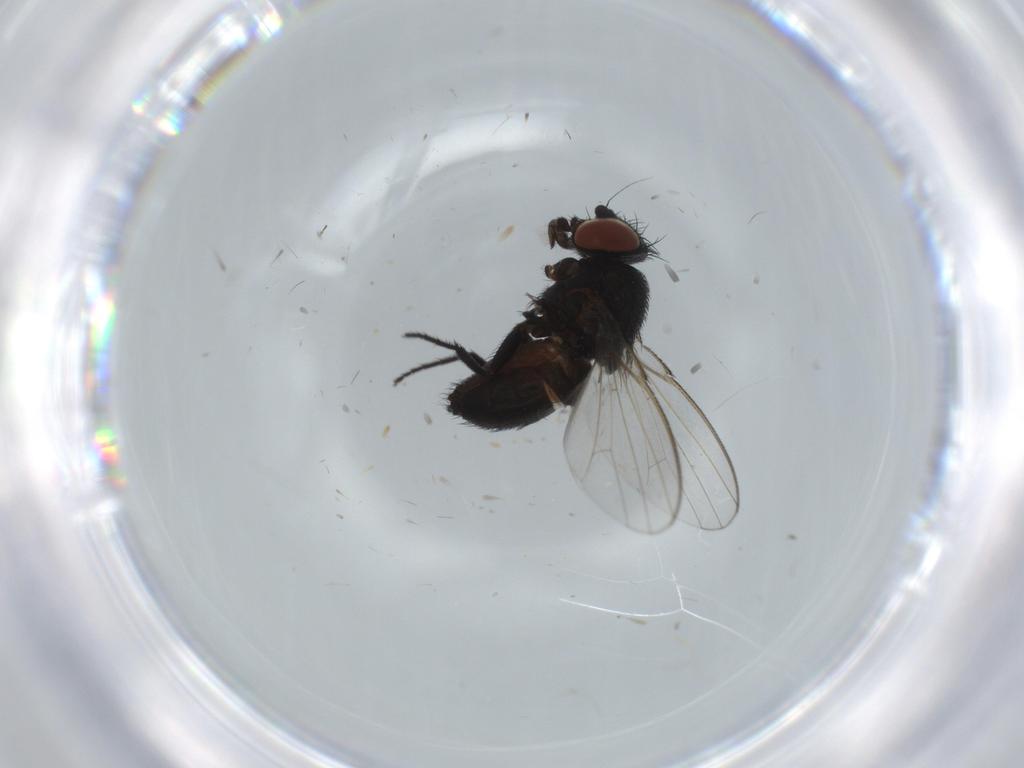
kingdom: Animalia
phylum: Arthropoda
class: Insecta
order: Diptera
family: Milichiidae
